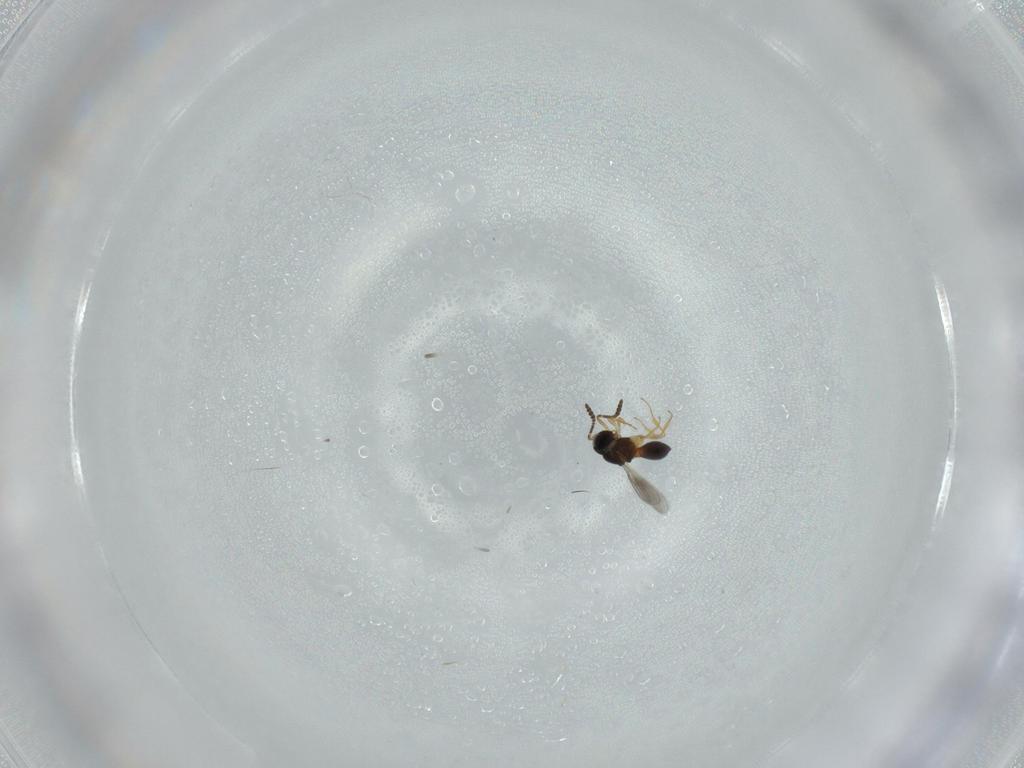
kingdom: Animalia
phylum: Arthropoda
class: Insecta
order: Hymenoptera
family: Scelionidae
